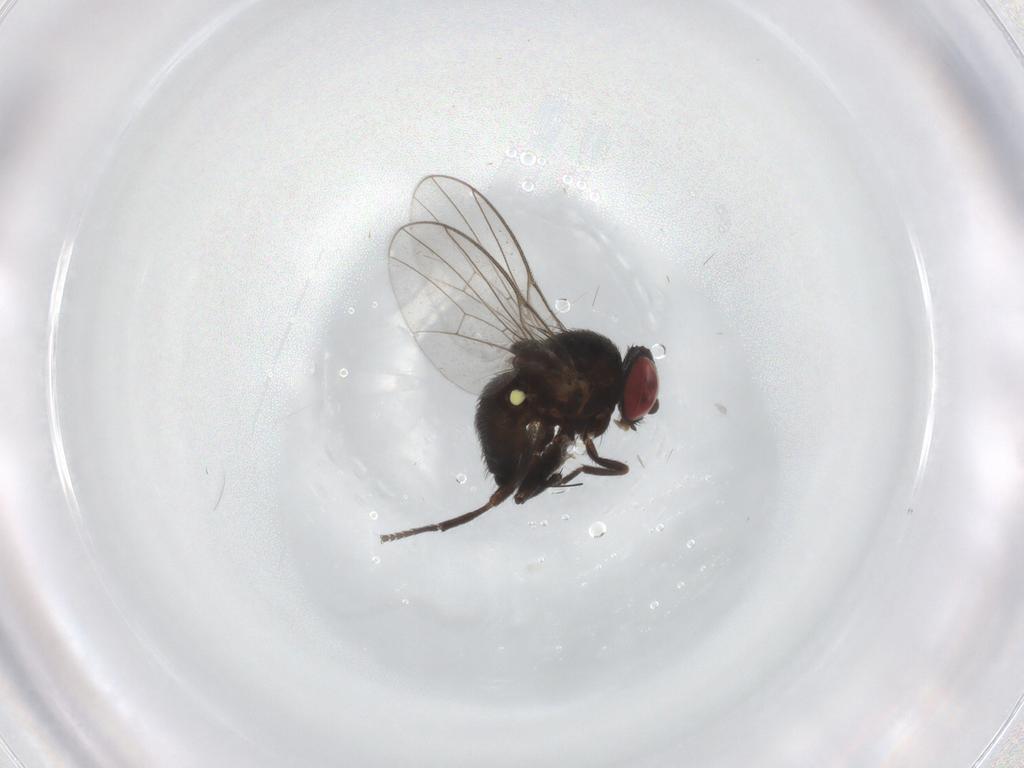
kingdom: Animalia
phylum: Arthropoda
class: Insecta
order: Diptera
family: Agromyzidae
